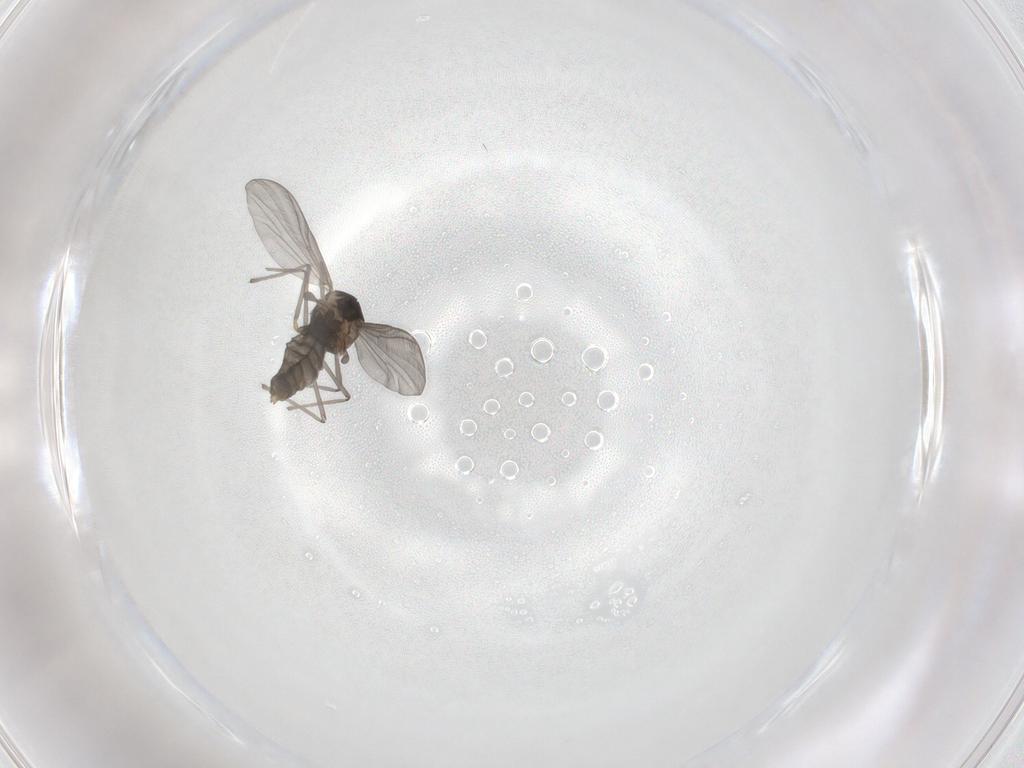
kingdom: Animalia
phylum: Arthropoda
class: Insecta
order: Diptera
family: Chironomidae
